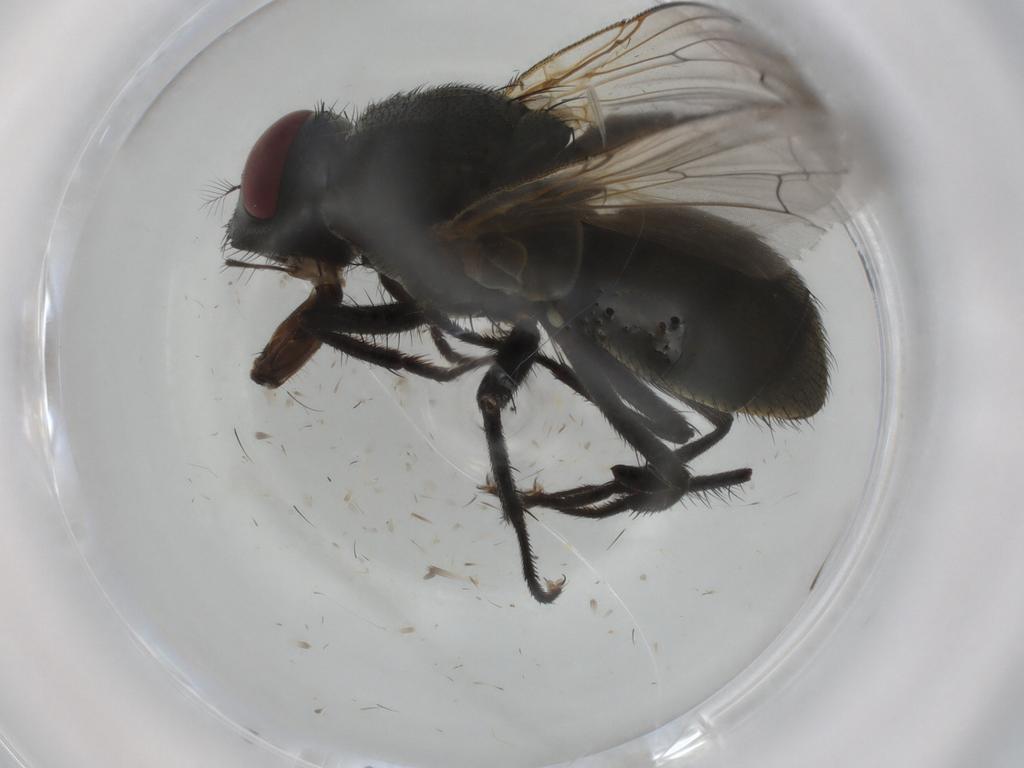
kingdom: Animalia
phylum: Arthropoda
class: Insecta
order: Diptera
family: Muscidae
